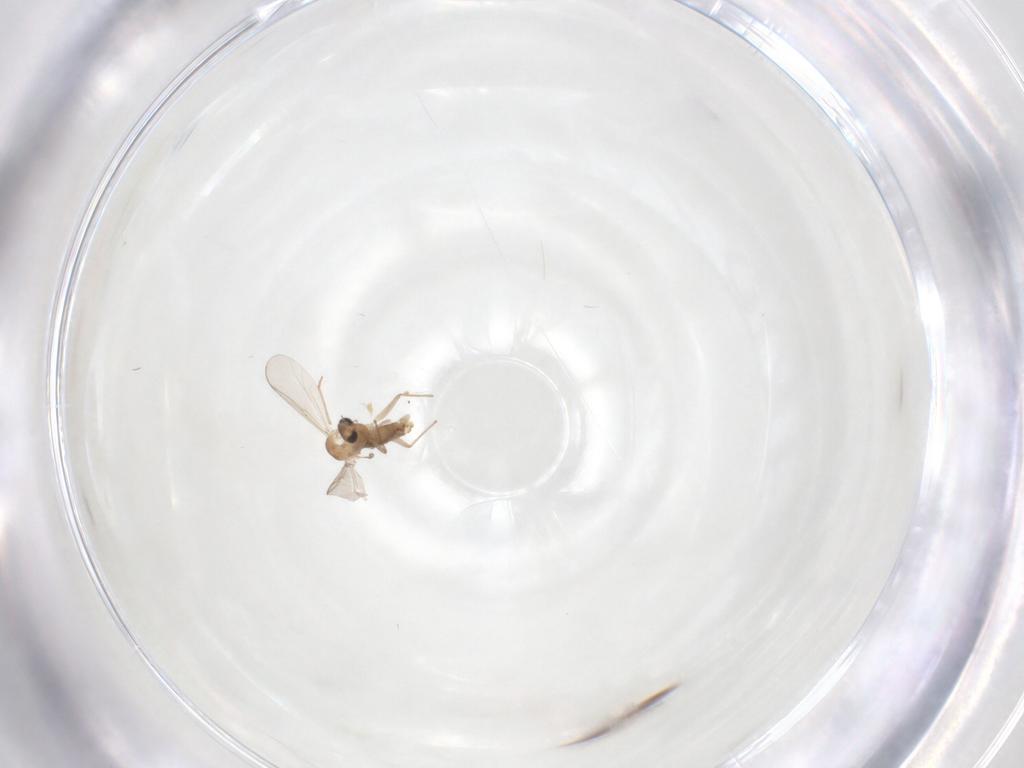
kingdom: Animalia
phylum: Arthropoda
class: Insecta
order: Diptera
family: Chironomidae
